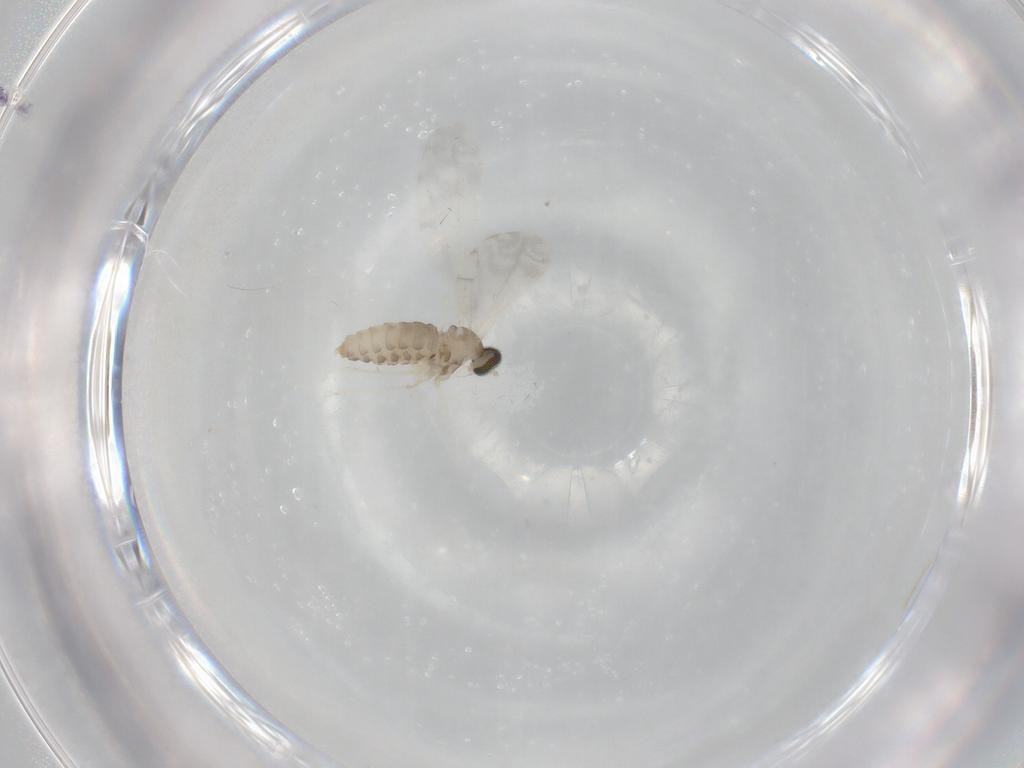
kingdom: Animalia
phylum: Arthropoda
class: Insecta
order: Diptera
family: Cecidomyiidae
